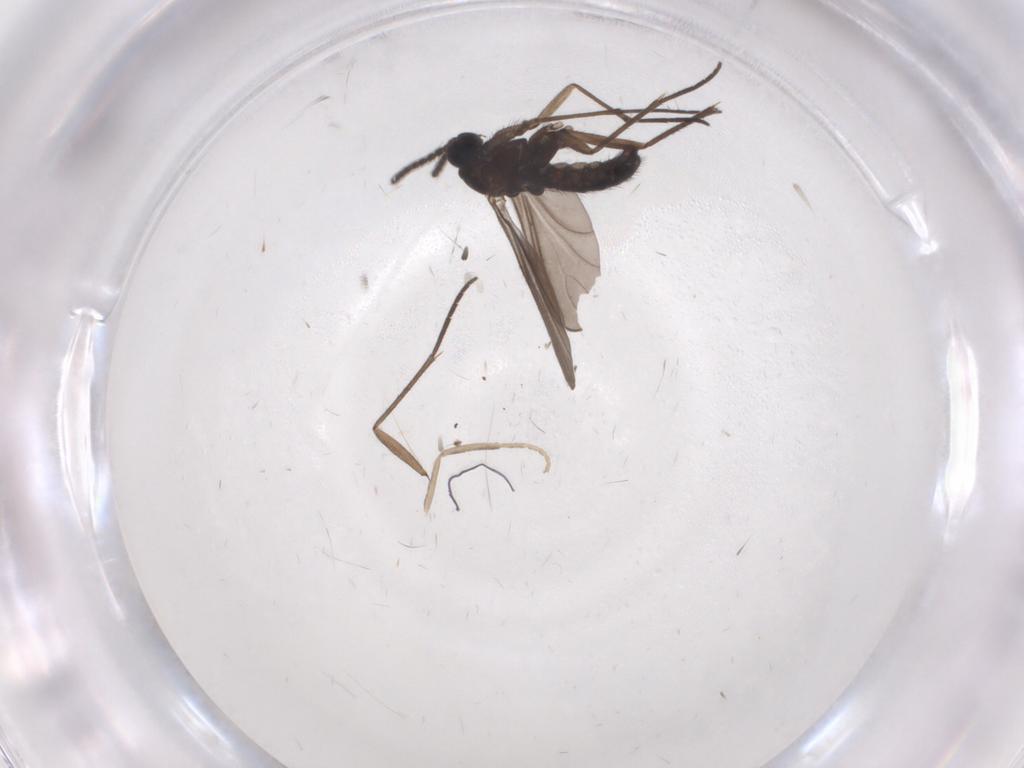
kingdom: Animalia
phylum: Arthropoda
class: Insecta
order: Diptera
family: Sciaridae
